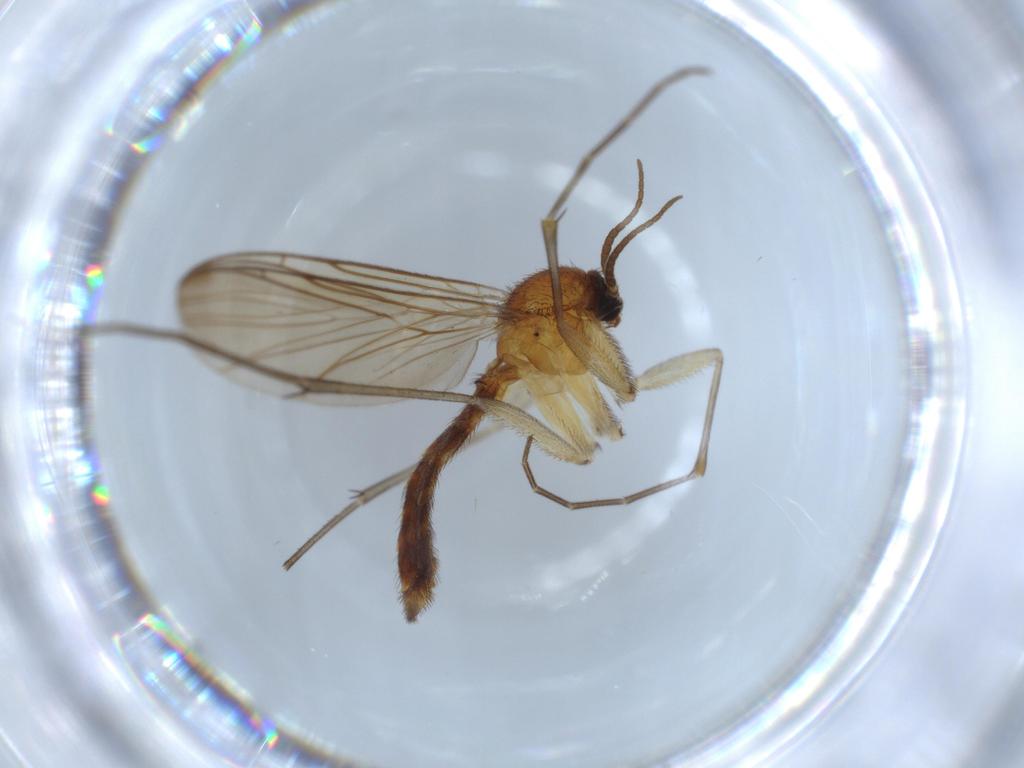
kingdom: Animalia
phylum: Arthropoda
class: Insecta
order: Diptera
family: Keroplatidae
